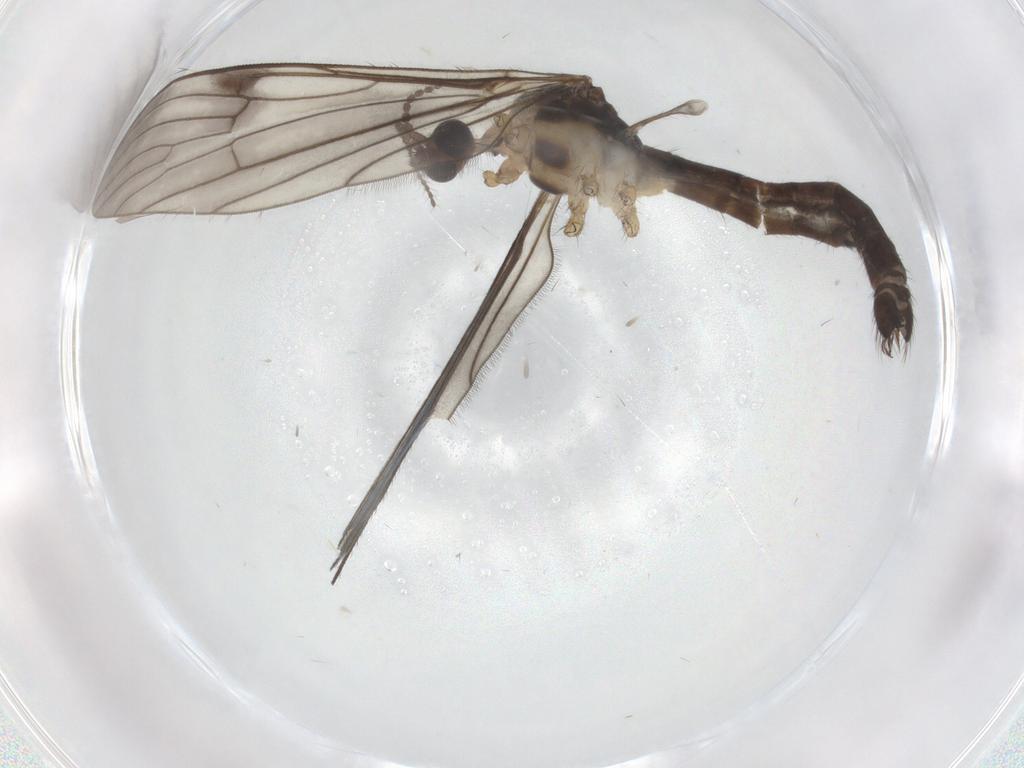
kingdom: Animalia
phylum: Arthropoda
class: Insecta
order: Diptera
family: Limoniidae
